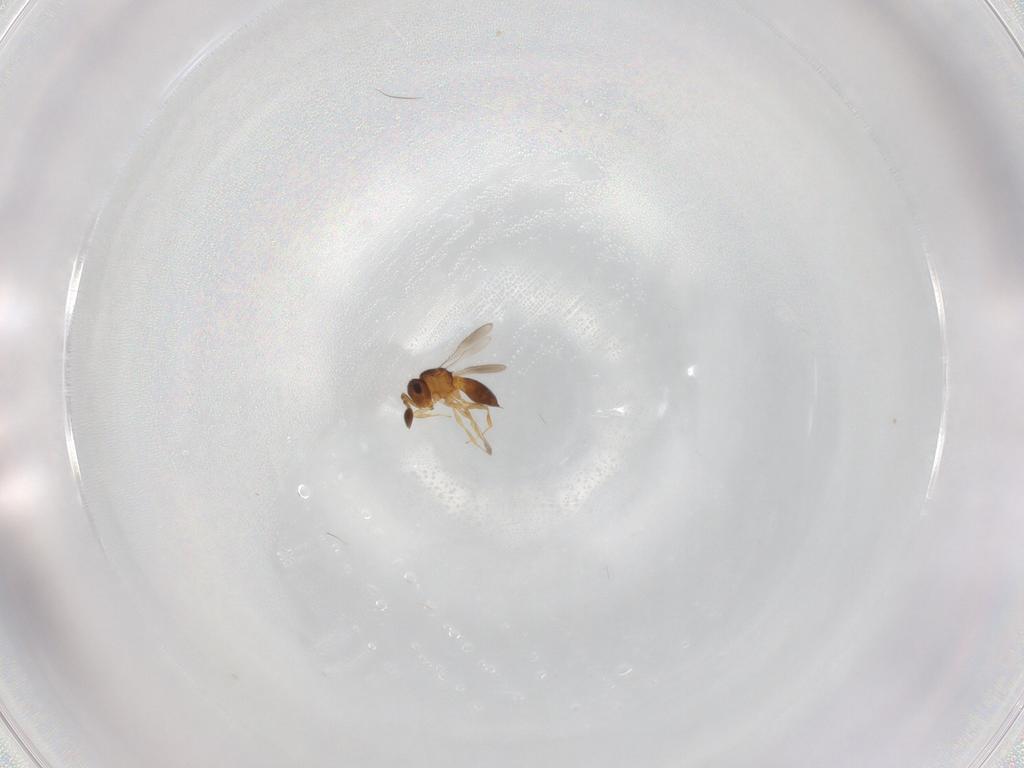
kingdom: Animalia
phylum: Arthropoda
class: Insecta
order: Hymenoptera
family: Scelionidae
